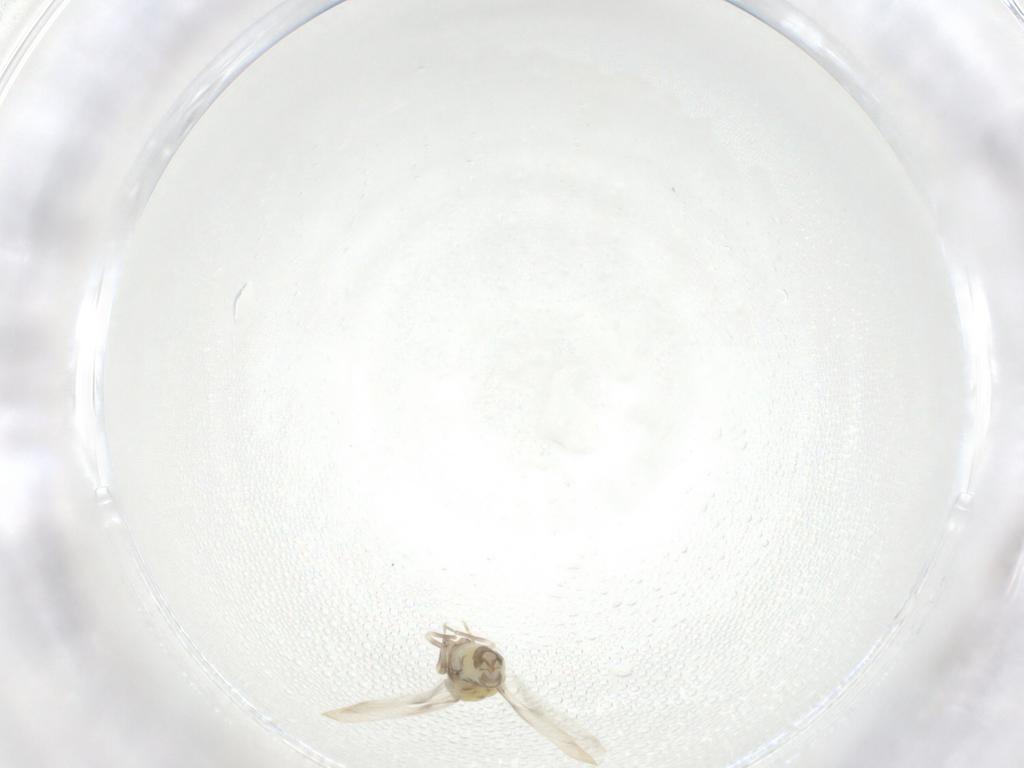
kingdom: Animalia
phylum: Arthropoda
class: Insecta
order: Hemiptera
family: Aleyrodidae
